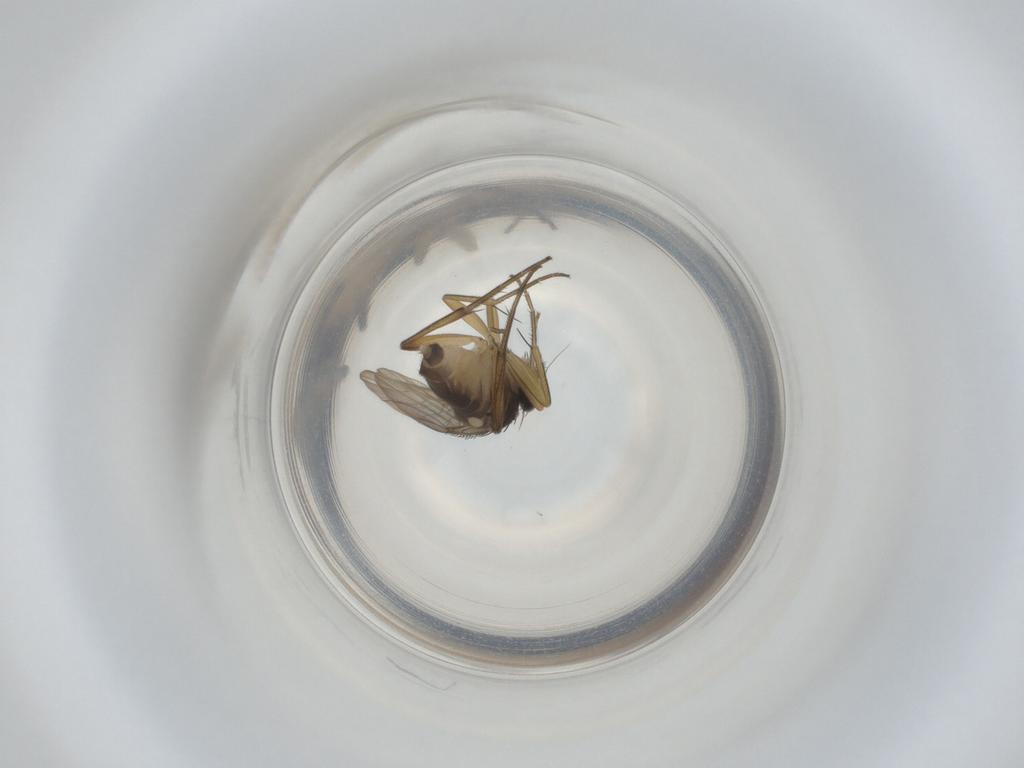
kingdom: Animalia
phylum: Arthropoda
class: Insecta
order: Diptera
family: Phoridae
